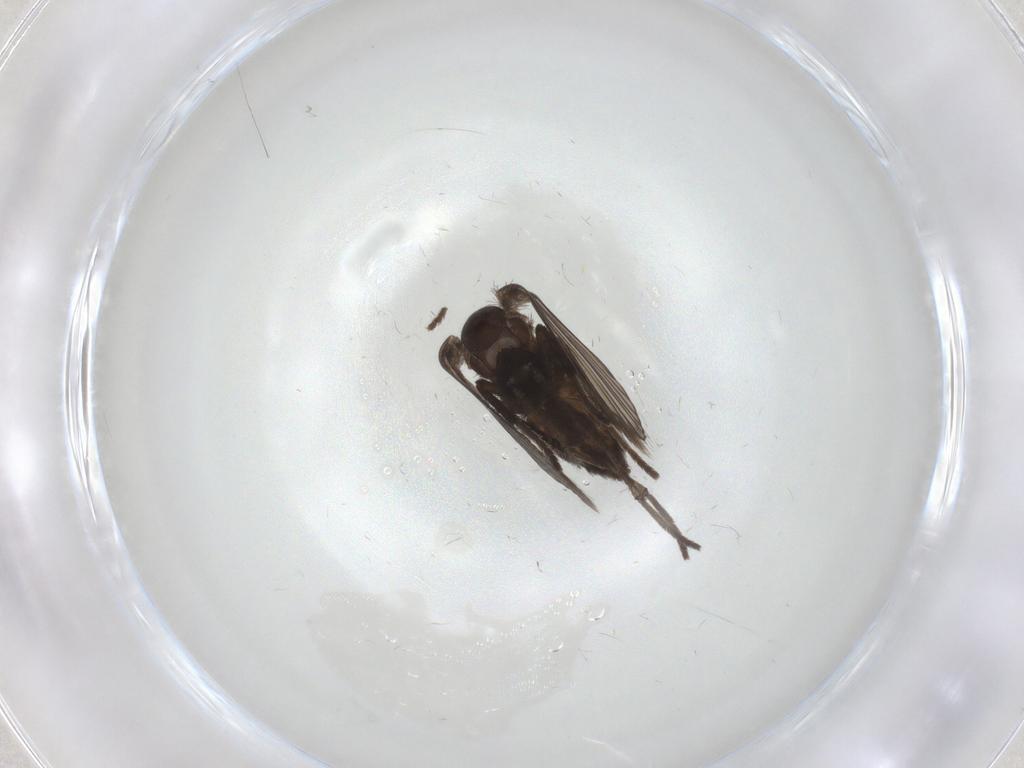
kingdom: Animalia
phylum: Arthropoda
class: Insecta
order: Diptera
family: Psychodidae
